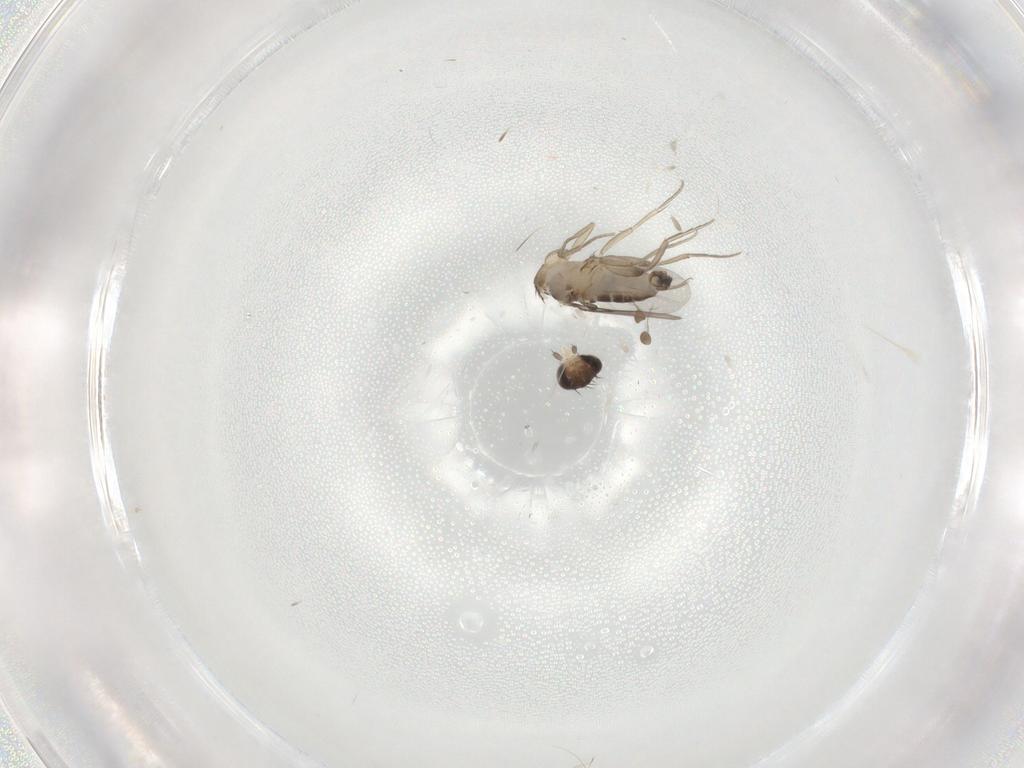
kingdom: Animalia
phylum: Arthropoda
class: Insecta
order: Diptera
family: Phoridae
